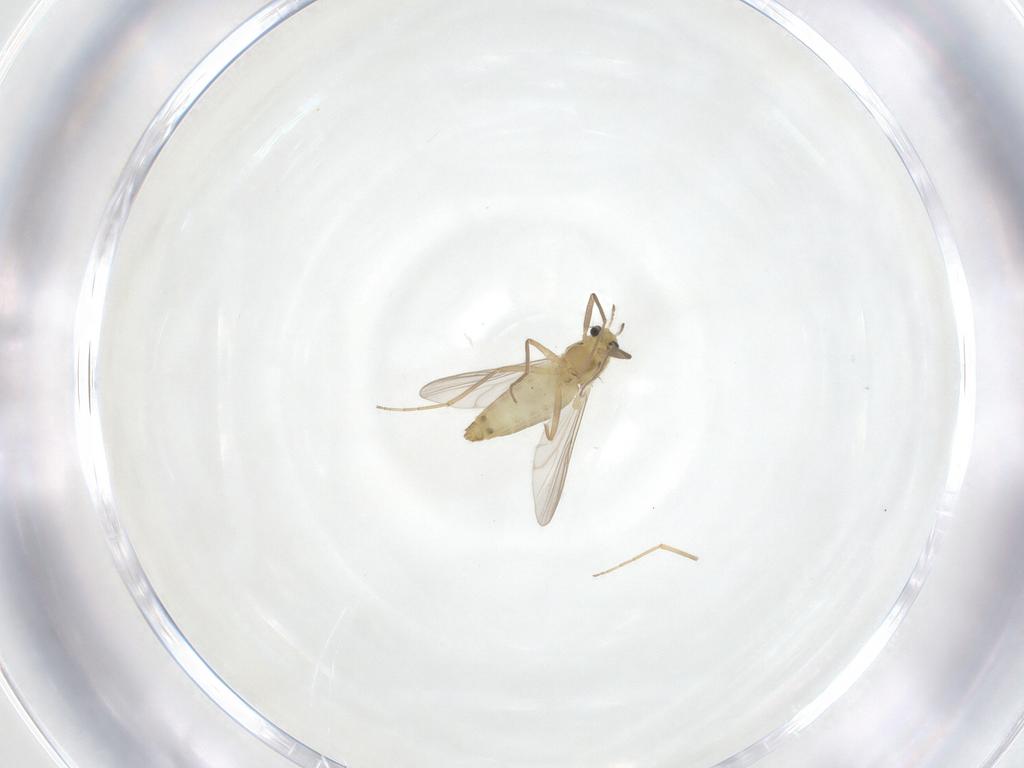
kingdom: Animalia
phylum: Arthropoda
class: Insecta
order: Diptera
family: Chironomidae
